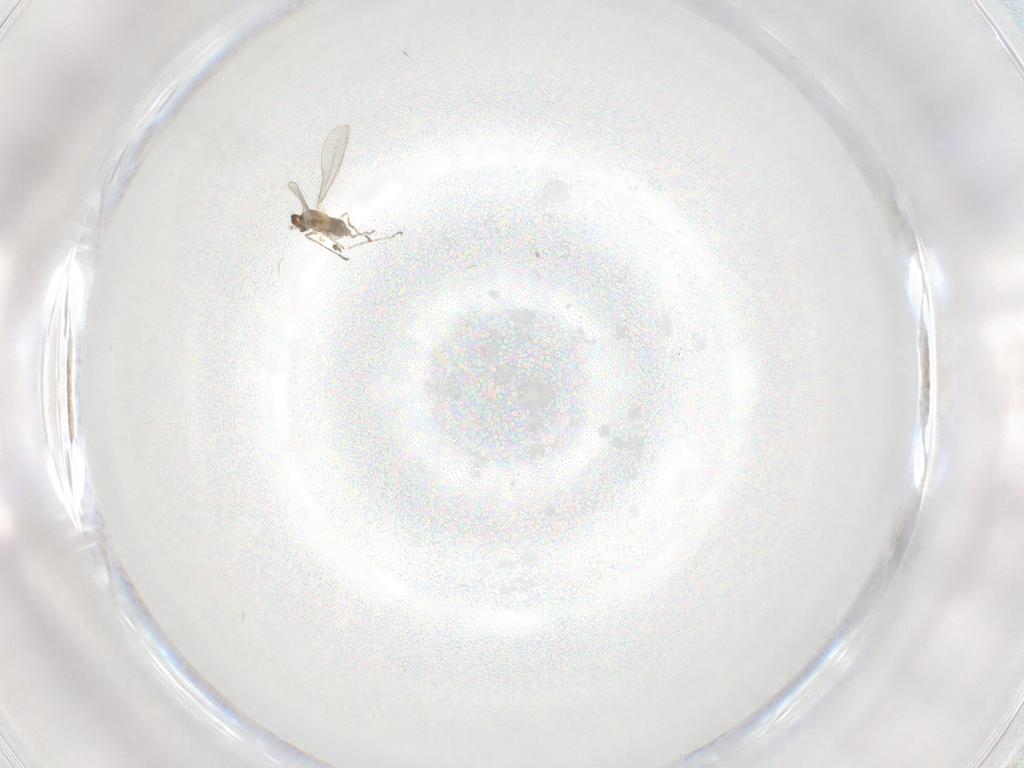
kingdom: Animalia
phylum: Arthropoda
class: Insecta
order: Diptera
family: Cecidomyiidae
